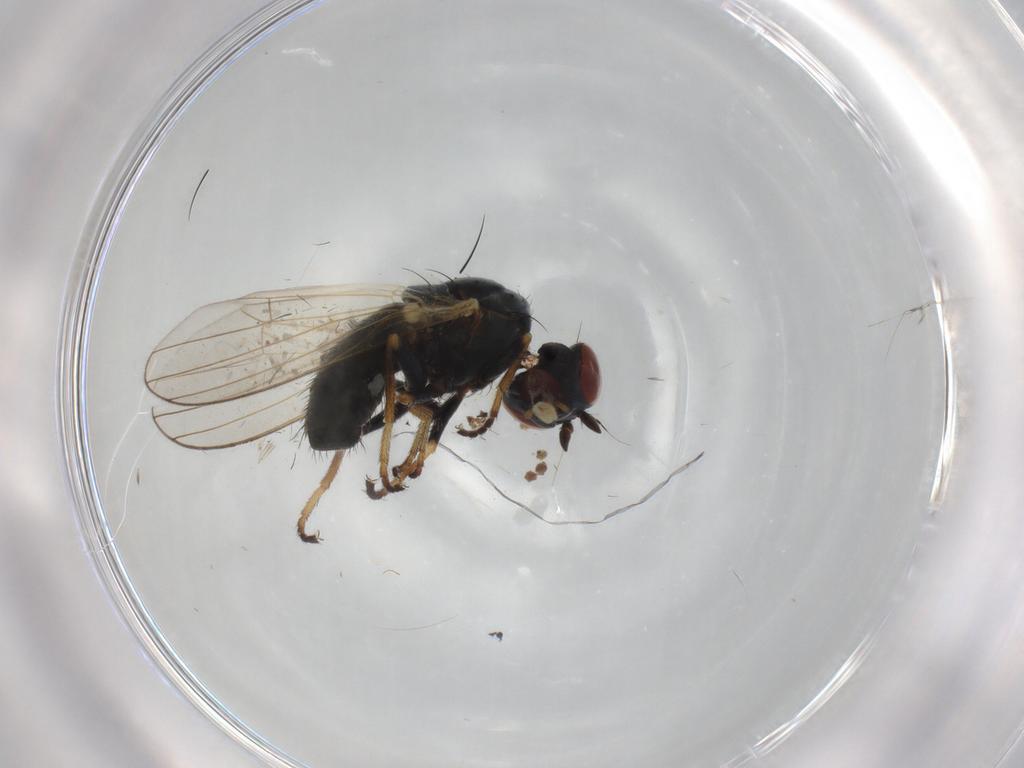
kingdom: Animalia
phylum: Arthropoda
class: Insecta
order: Diptera
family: Chamaemyiidae
